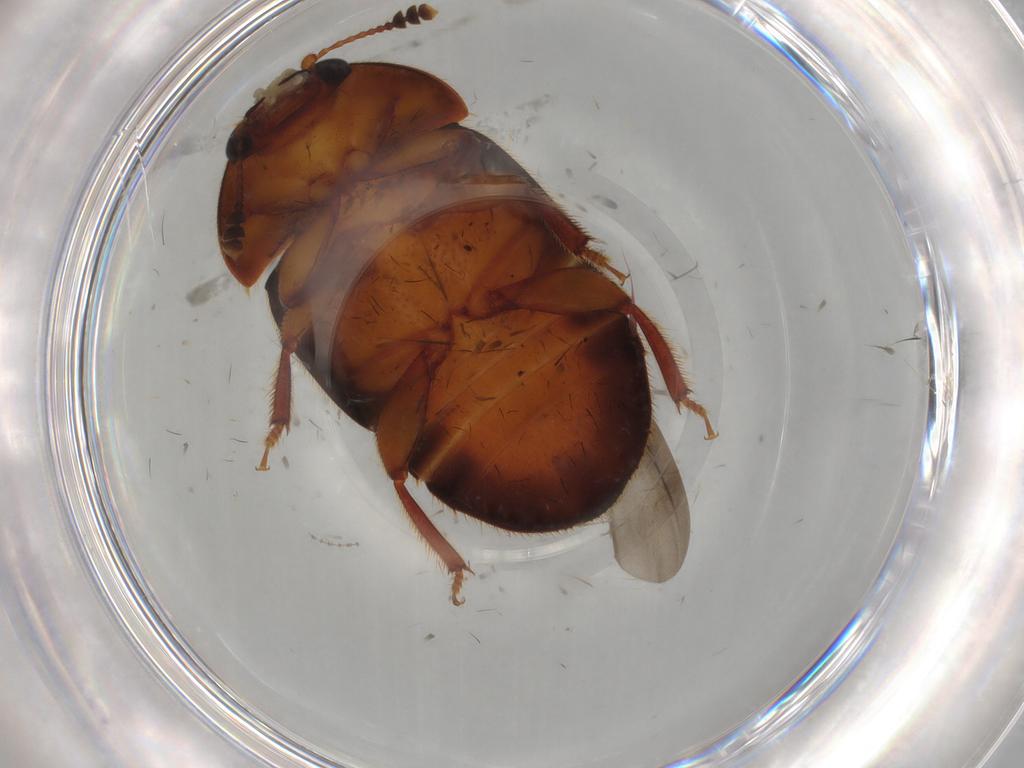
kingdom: Animalia
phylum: Arthropoda
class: Insecta
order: Coleoptera
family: Nitidulidae
